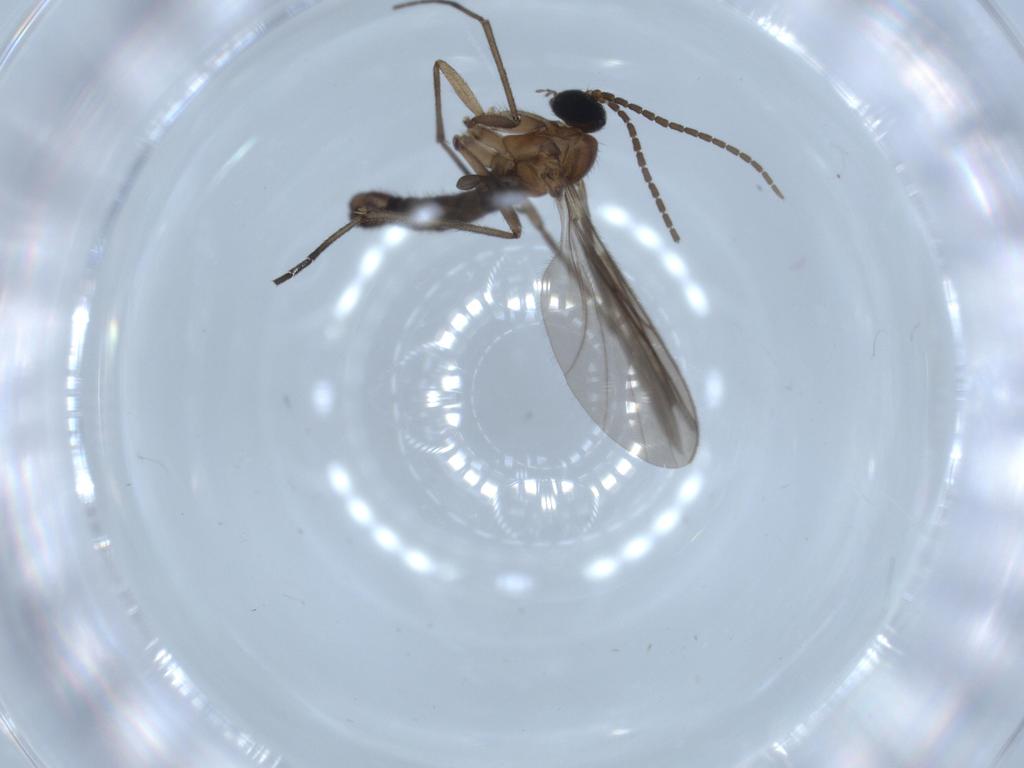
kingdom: Animalia
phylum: Arthropoda
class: Insecta
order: Diptera
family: Sciaridae
